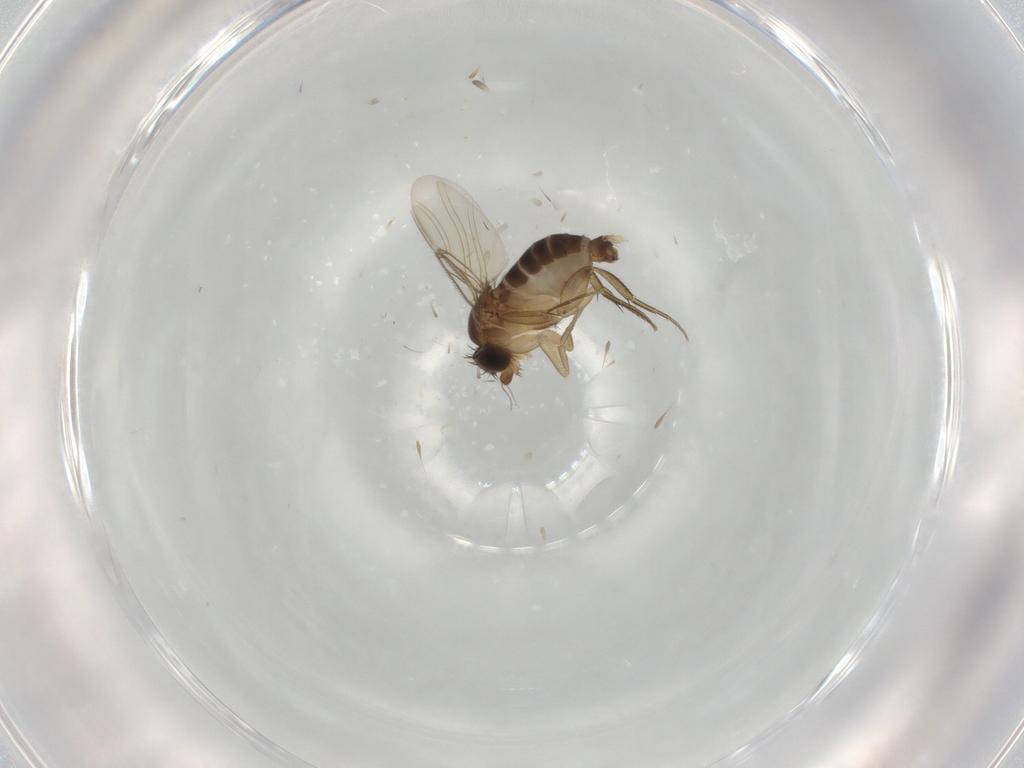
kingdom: Animalia
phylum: Arthropoda
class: Insecta
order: Diptera
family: Phoridae
